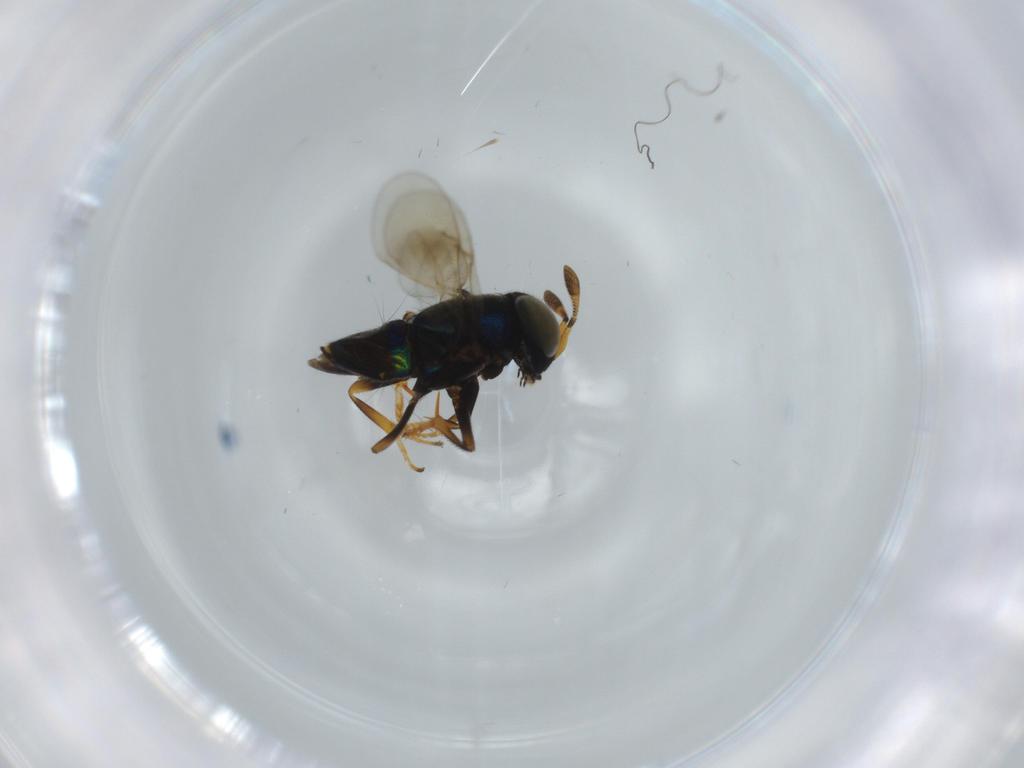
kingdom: Animalia
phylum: Arthropoda
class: Insecta
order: Hymenoptera
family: Encyrtidae
